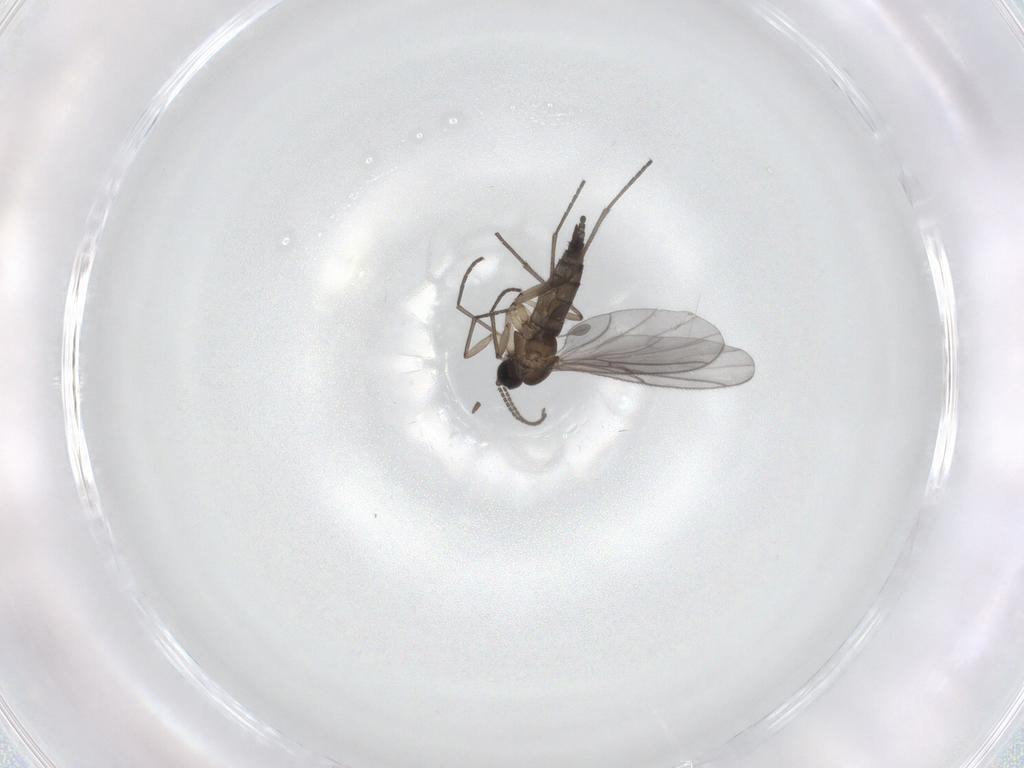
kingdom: Animalia
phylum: Arthropoda
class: Insecta
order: Diptera
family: Sciaridae
